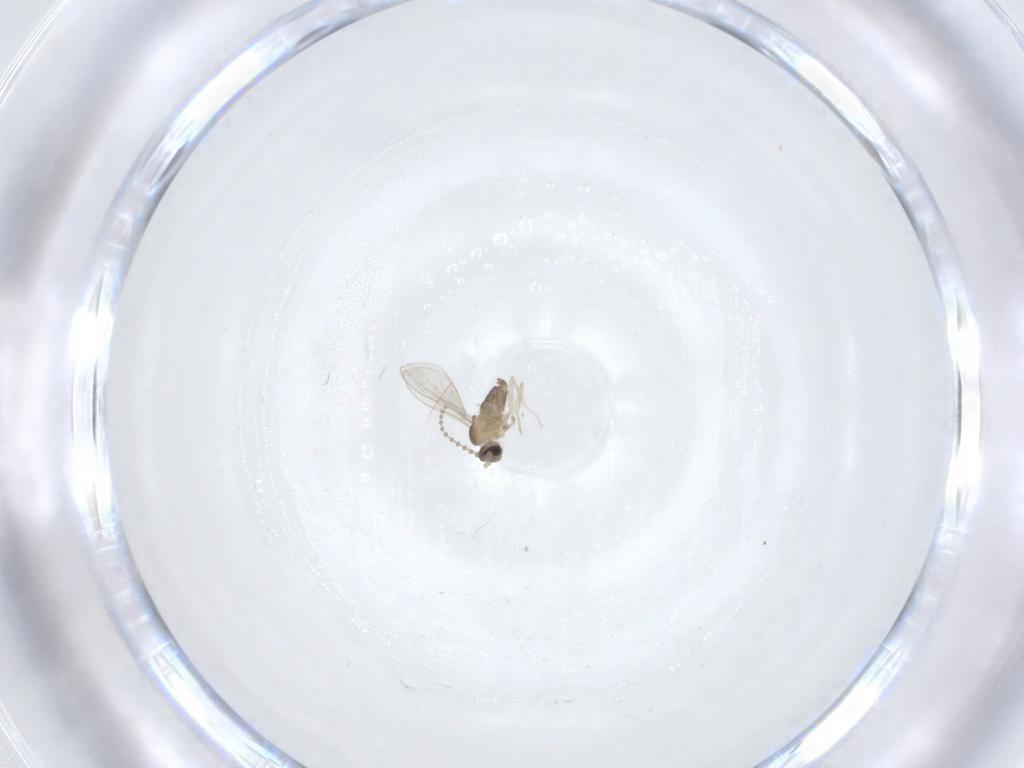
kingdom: Animalia
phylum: Arthropoda
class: Insecta
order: Diptera
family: Cecidomyiidae
